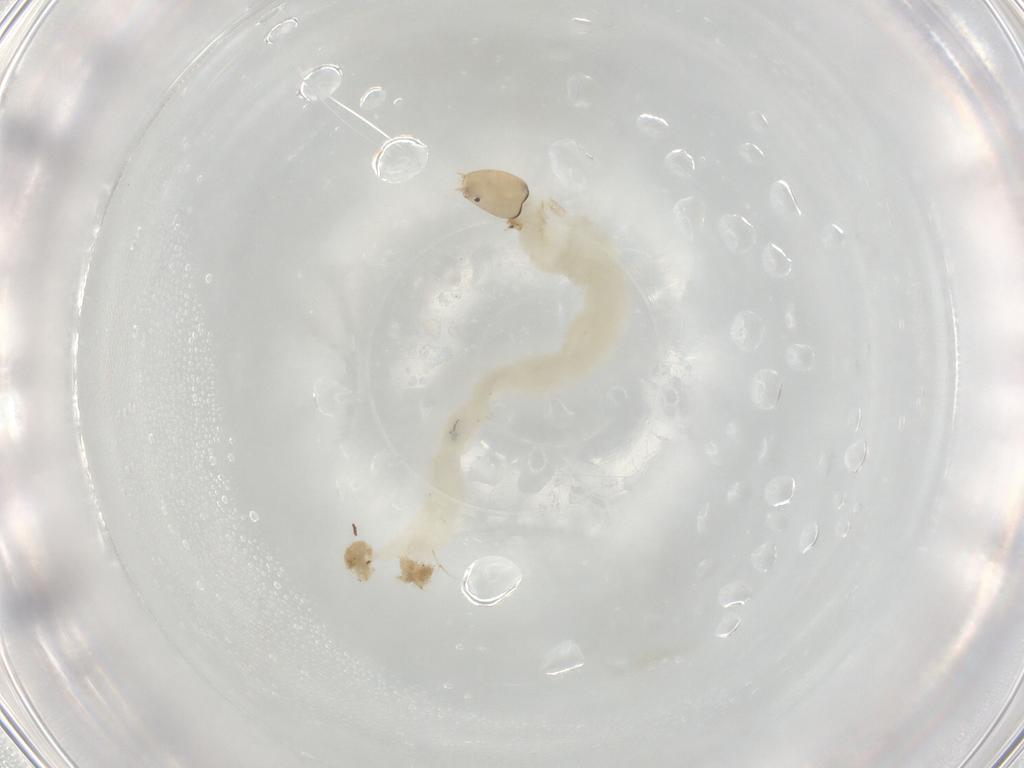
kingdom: Animalia
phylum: Arthropoda
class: Insecta
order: Diptera
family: Chironomidae
